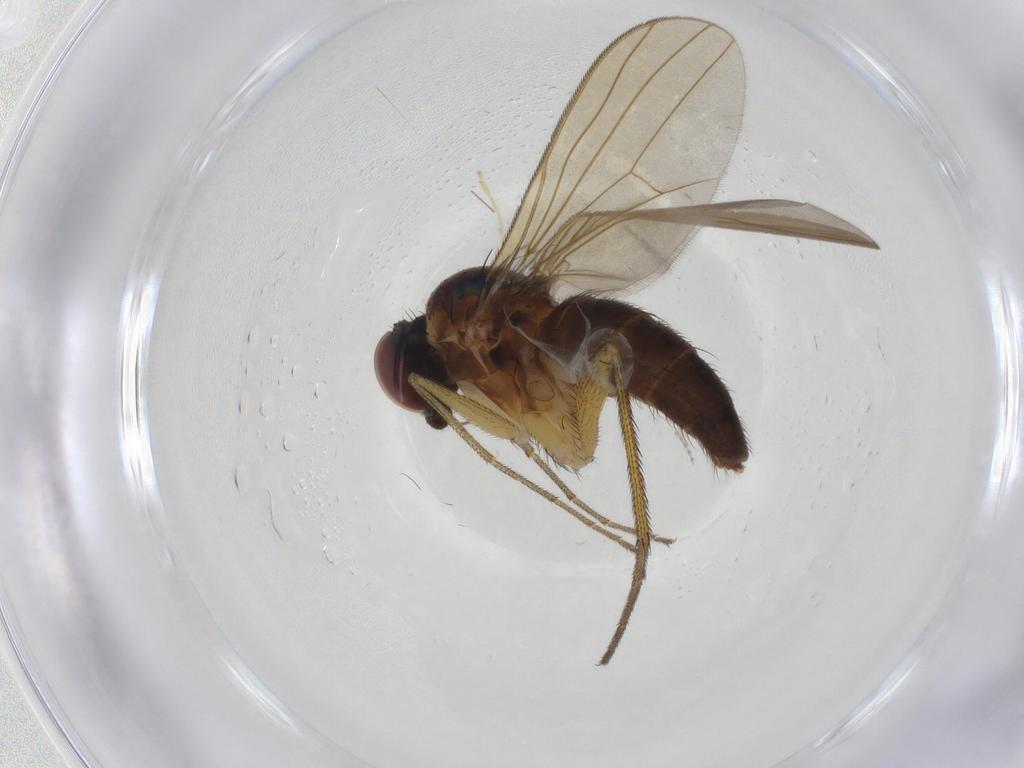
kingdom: Animalia
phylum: Arthropoda
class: Insecta
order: Diptera
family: Dolichopodidae
